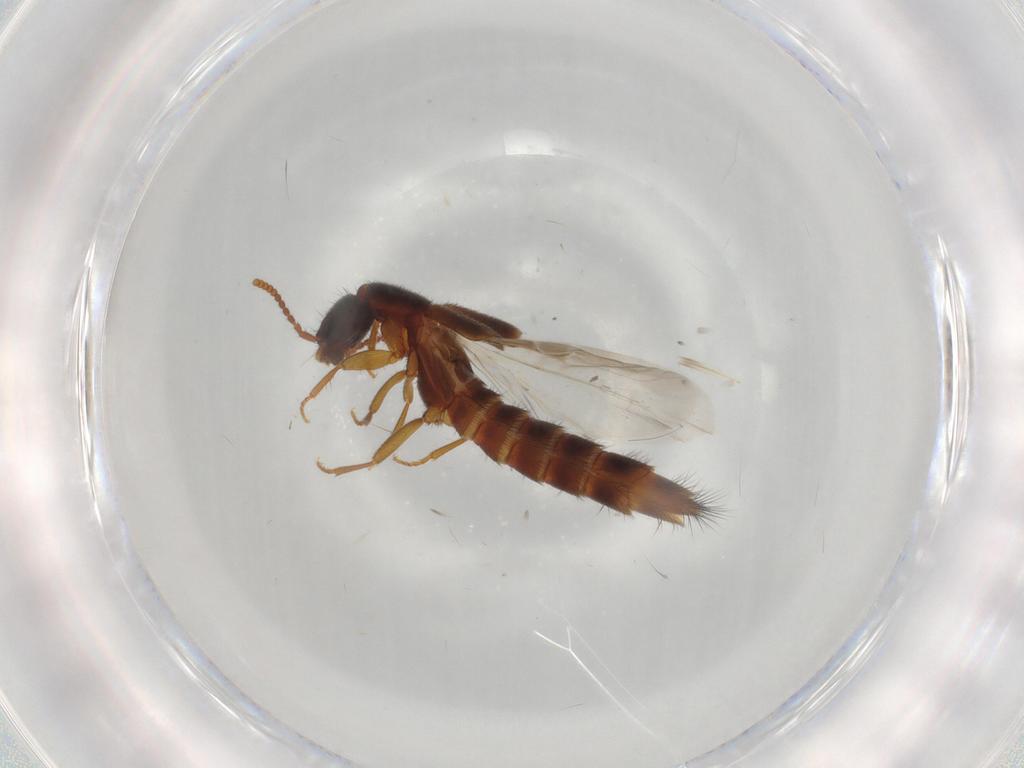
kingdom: Animalia
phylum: Arthropoda
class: Insecta
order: Coleoptera
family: Staphylinidae
